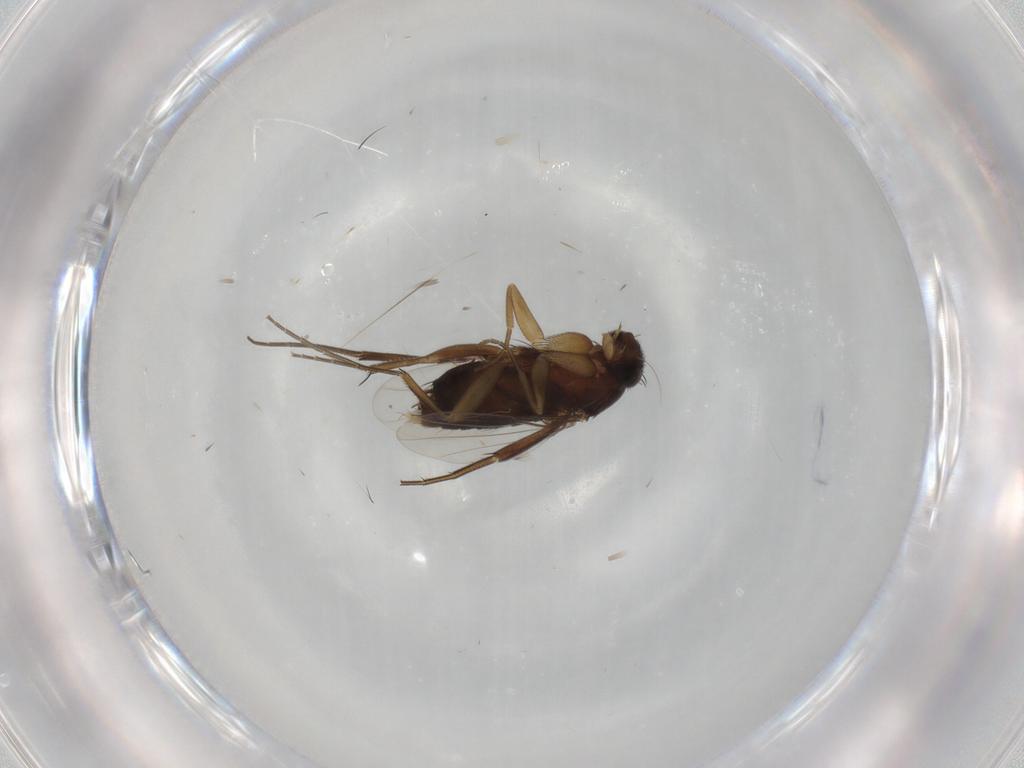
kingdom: Animalia
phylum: Arthropoda
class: Insecta
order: Diptera
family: Phoridae
